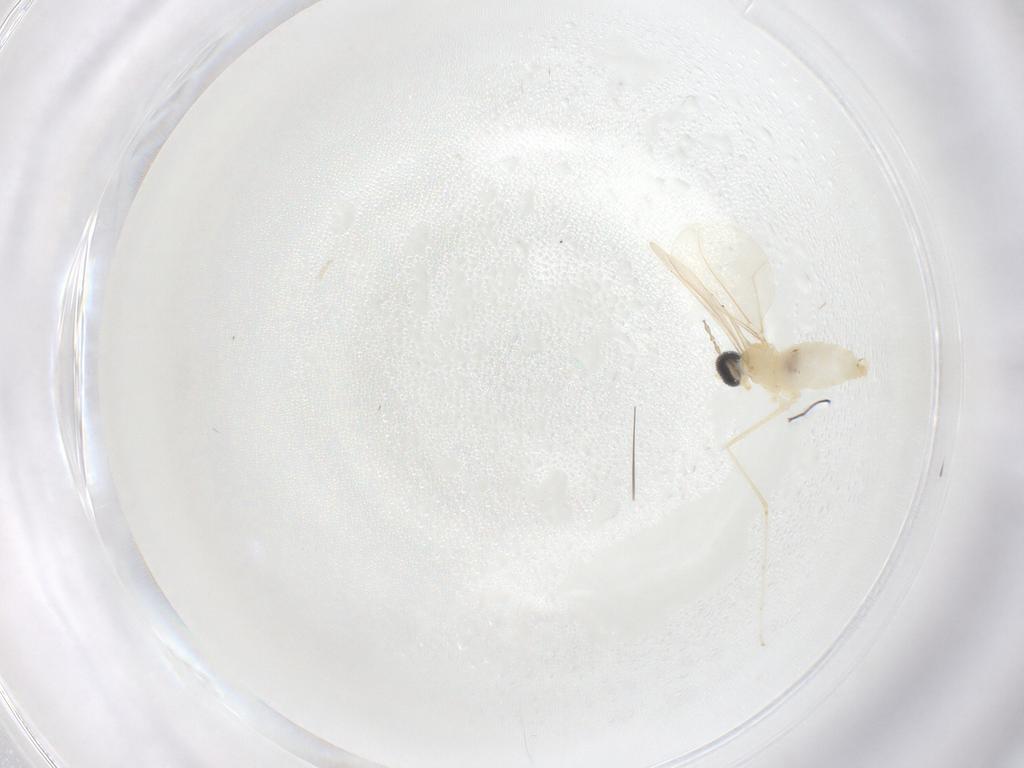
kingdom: Animalia
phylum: Arthropoda
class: Insecta
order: Diptera
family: Cecidomyiidae
